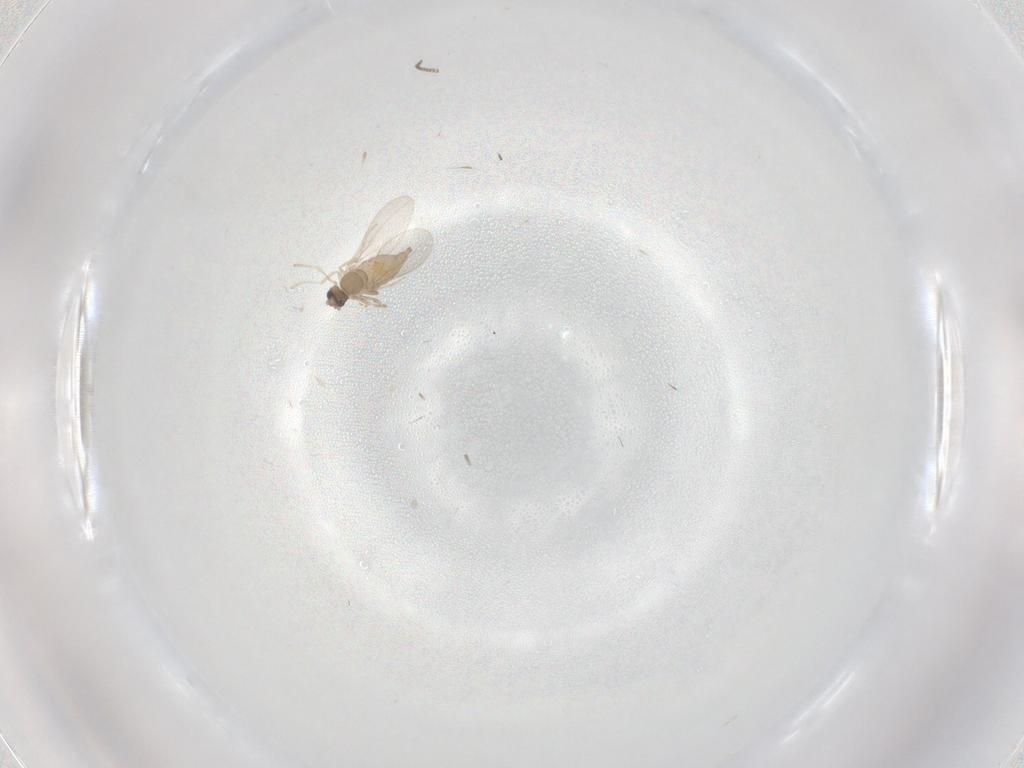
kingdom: Animalia
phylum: Arthropoda
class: Insecta
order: Diptera
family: Cecidomyiidae
